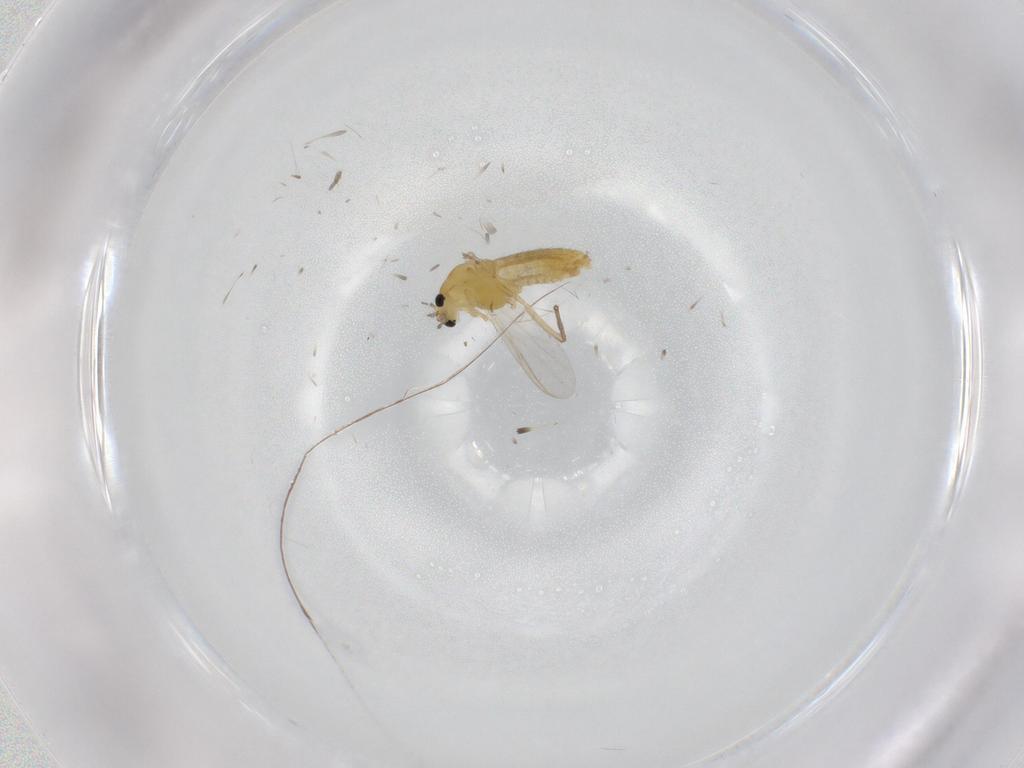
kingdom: Animalia
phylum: Arthropoda
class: Insecta
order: Diptera
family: Chironomidae
